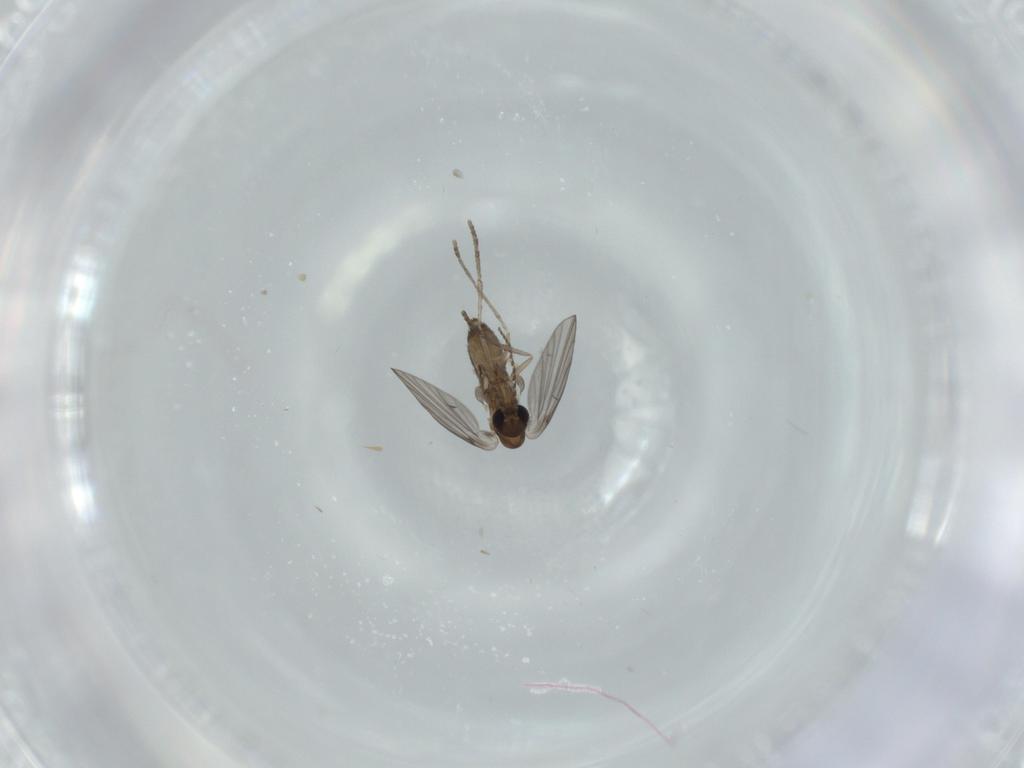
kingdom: Animalia
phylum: Arthropoda
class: Insecta
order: Diptera
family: Psychodidae
